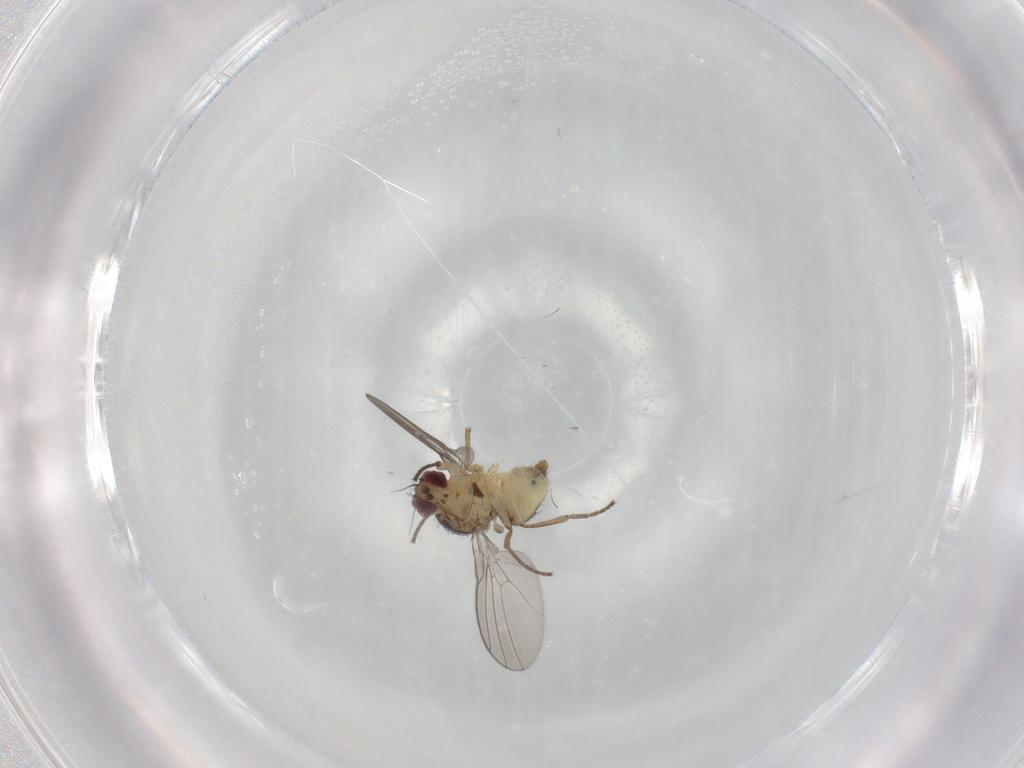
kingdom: Animalia
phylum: Arthropoda
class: Insecta
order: Diptera
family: Agromyzidae
